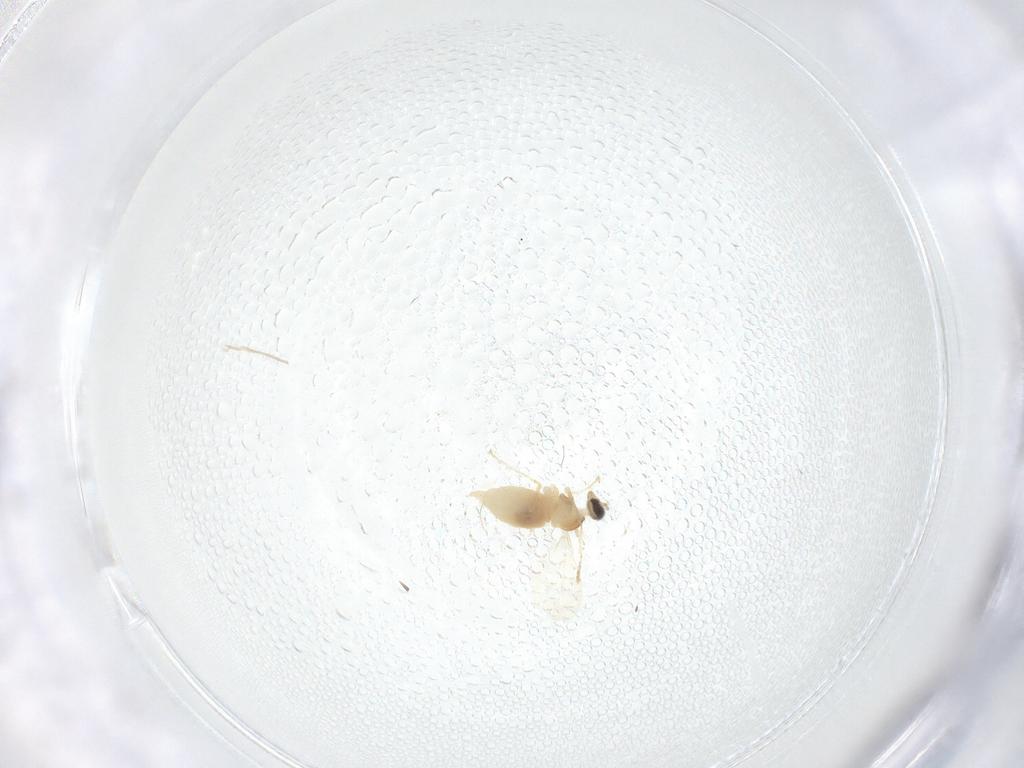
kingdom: Animalia
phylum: Arthropoda
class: Insecta
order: Diptera
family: Cecidomyiidae
